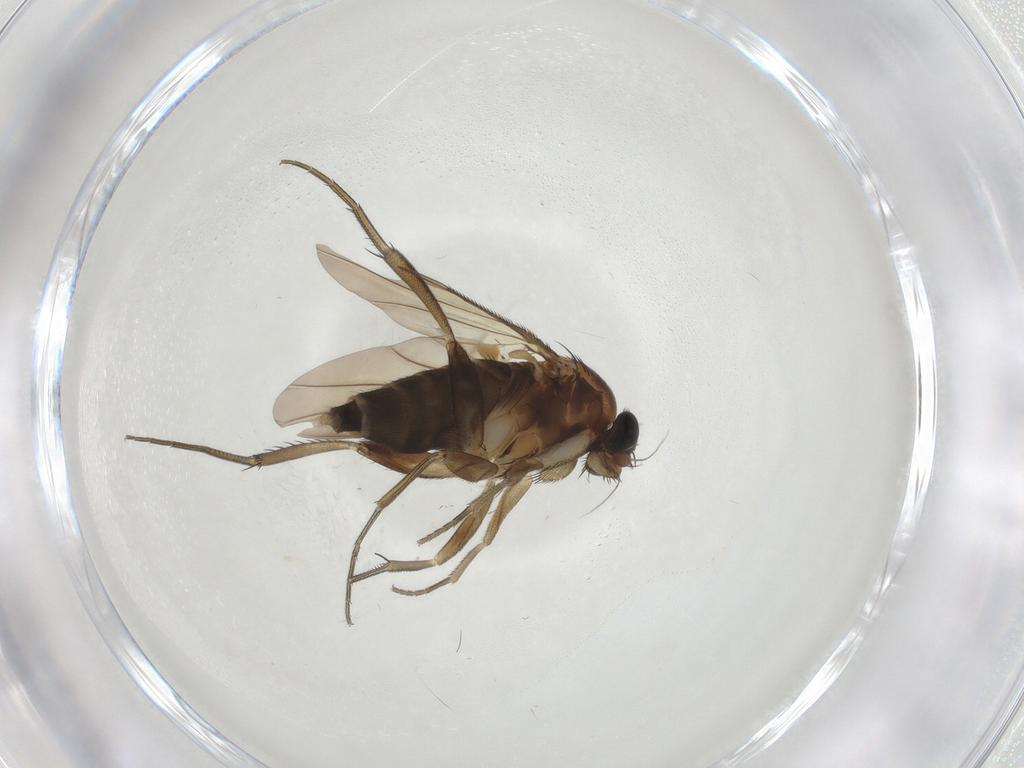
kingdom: Animalia
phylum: Arthropoda
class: Insecta
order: Diptera
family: Phoridae
